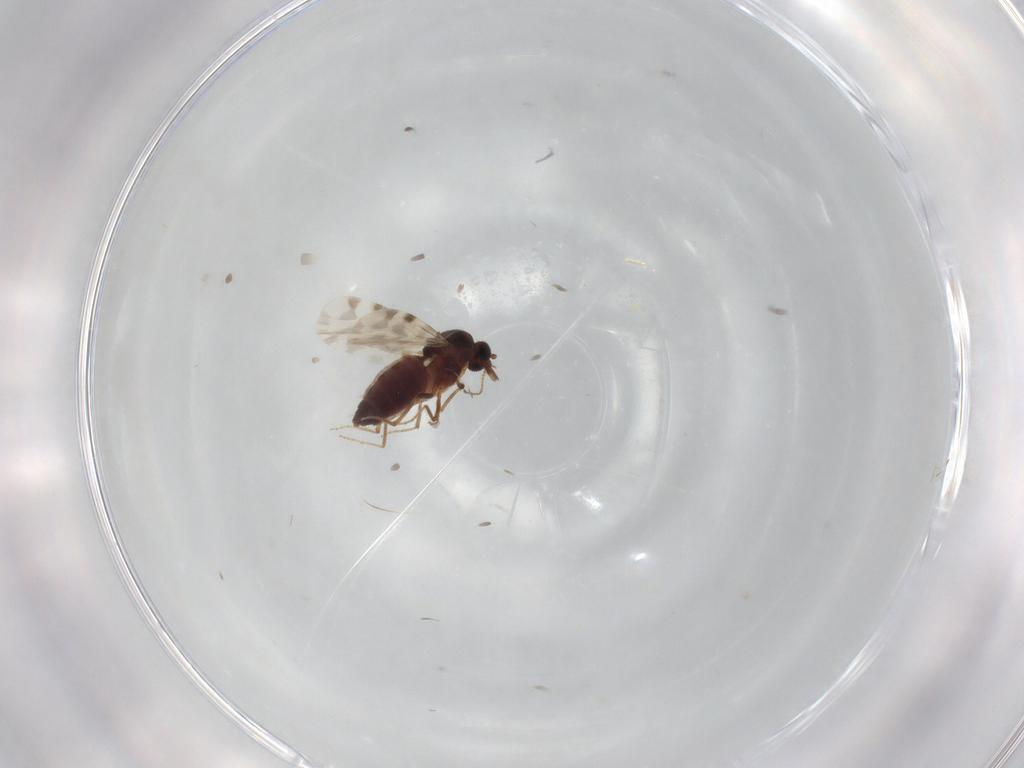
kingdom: Animalia
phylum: Arthropoda
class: Insecta
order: Diptera
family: Ceratopogonidae
